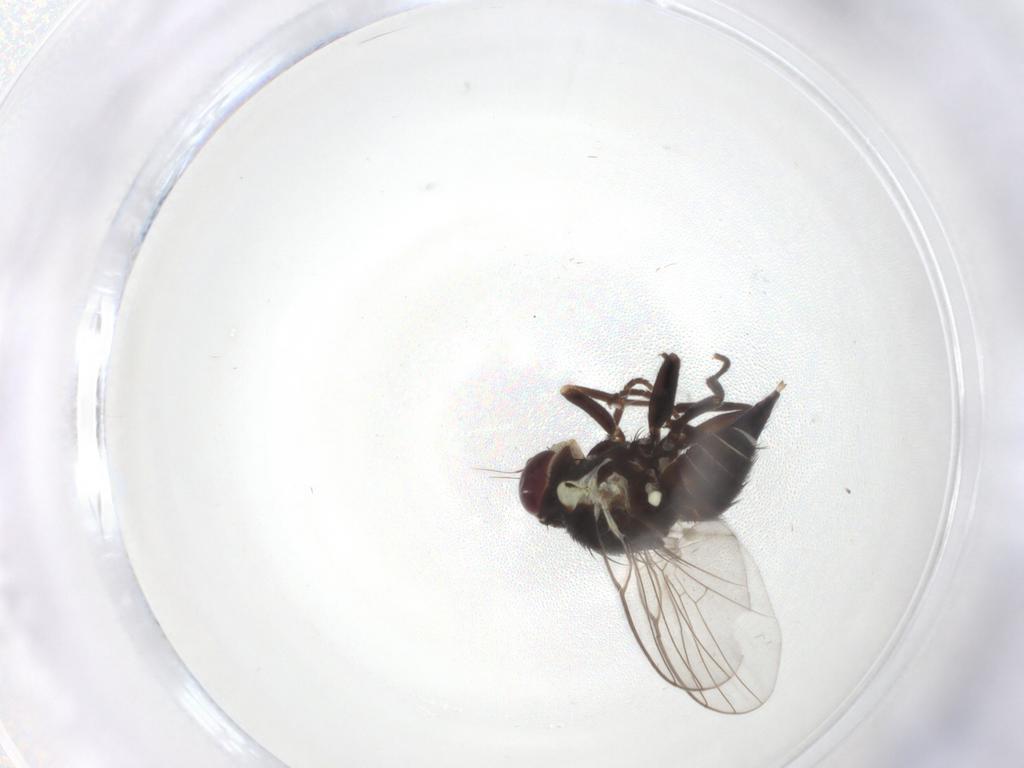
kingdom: Animalia
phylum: Arthropoda
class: Insecta
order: Diptera
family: Agromyzidae
